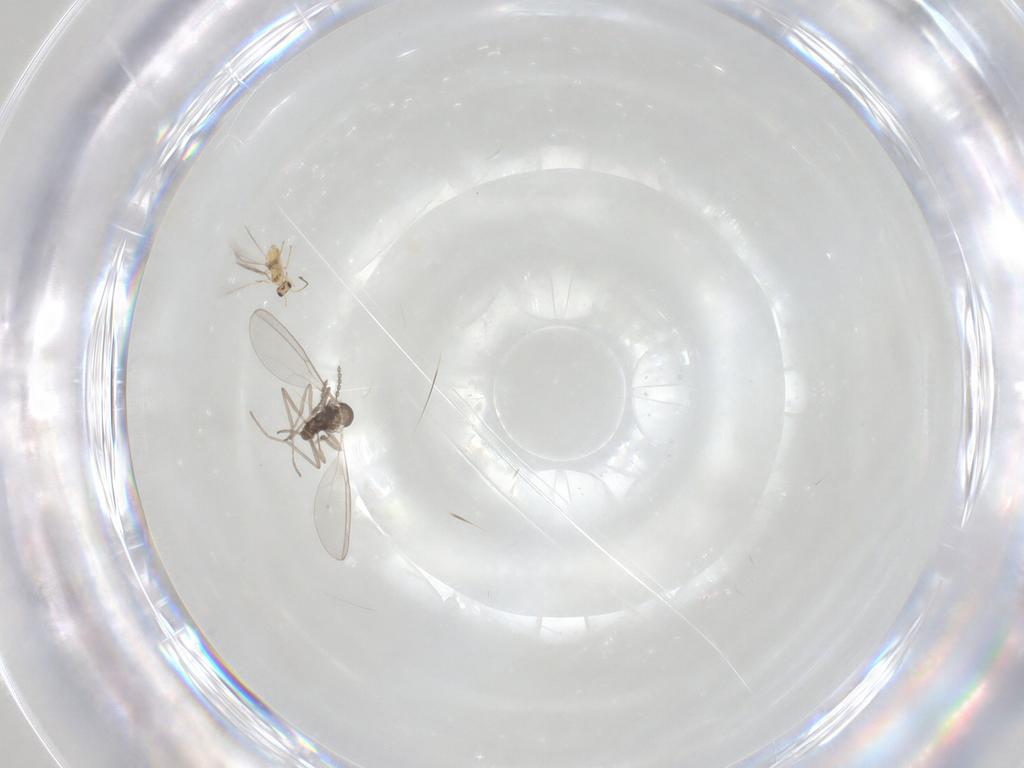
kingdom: Animalia
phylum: Arthropoda
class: Insecta
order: Diptera
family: Cecidomyiidae
